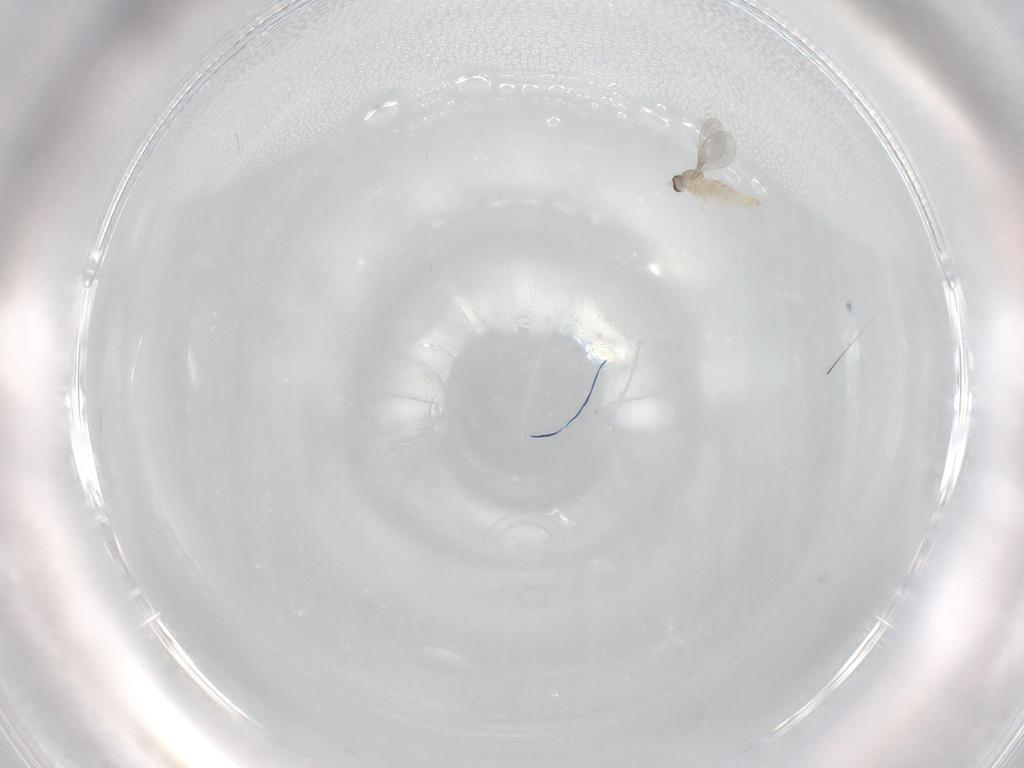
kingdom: Animalia
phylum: Arthropoda
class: Insecta
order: Diptera
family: Cecidomyiidae
